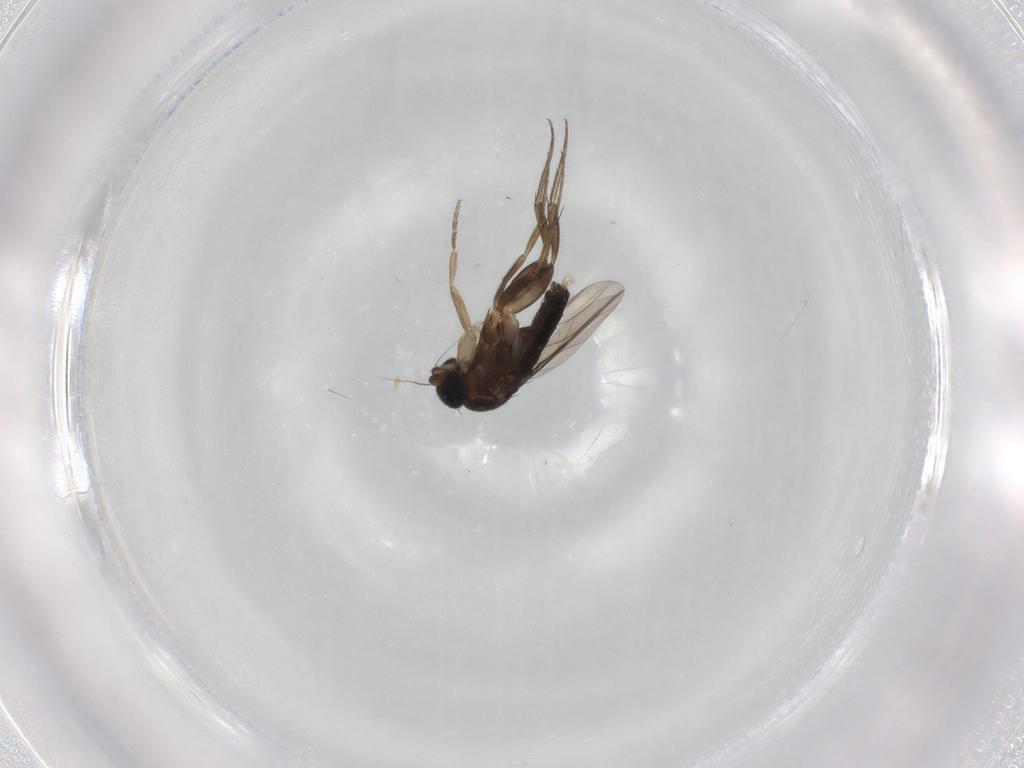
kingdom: Animalia
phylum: Arthropoda
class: Insecta
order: Diptera
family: Phoridae
